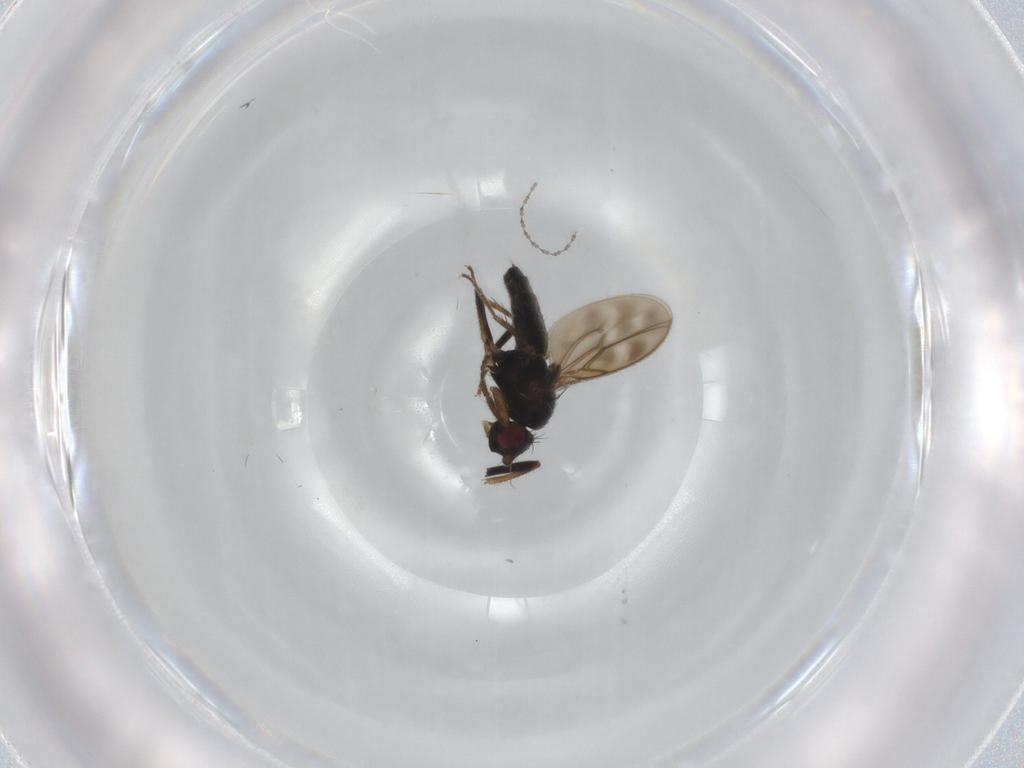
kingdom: Animalia
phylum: Arthropoda
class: Insecta
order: Diptera
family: Sphaeroceridae
